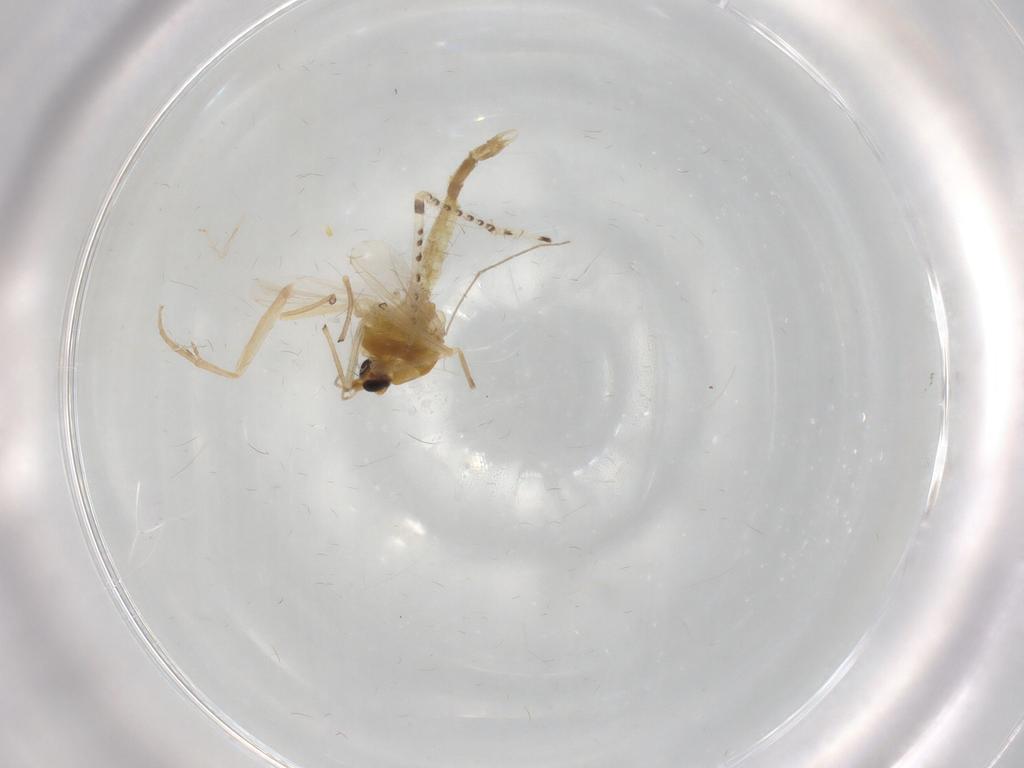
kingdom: Animalia
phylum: Arthropoda
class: Insecta
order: Diptera
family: Chironomidae
